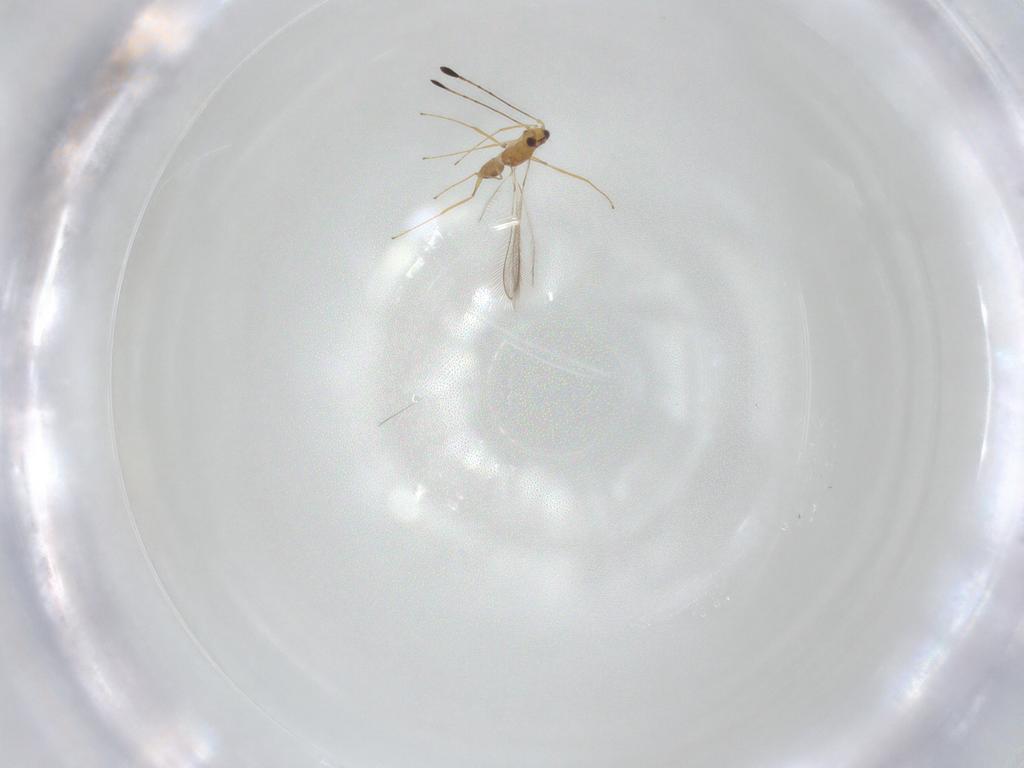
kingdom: Animalia
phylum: Arthropoda
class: Insecta
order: Hymenoptera
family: Mymaridae
